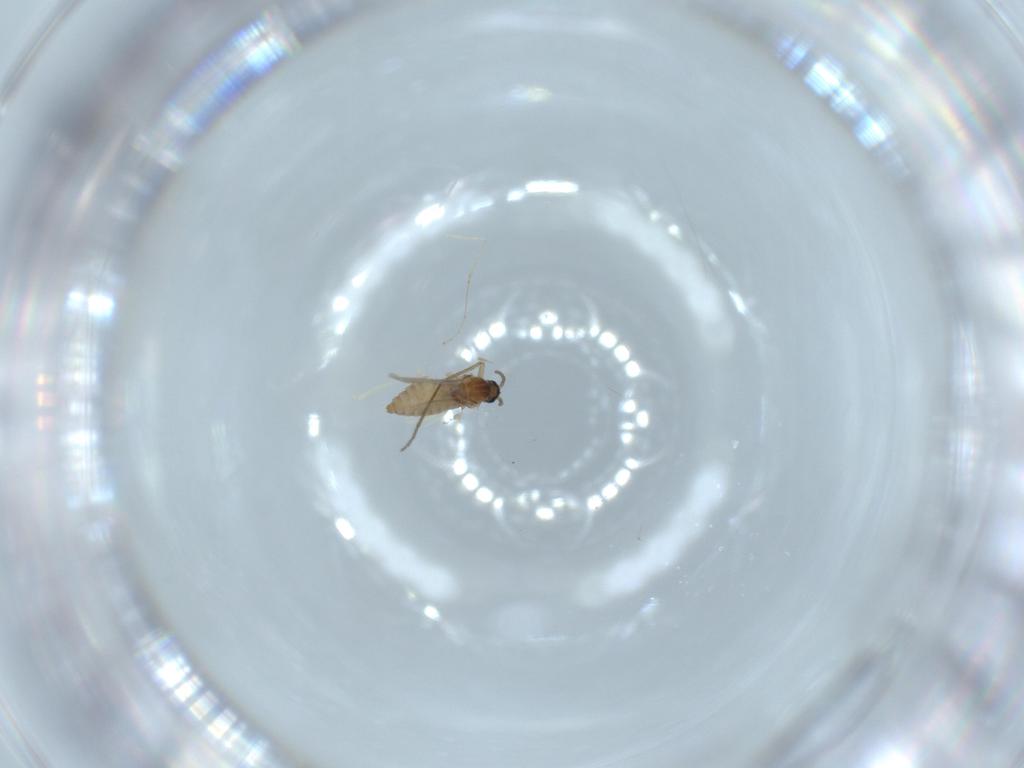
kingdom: Animalia
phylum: Arthropoda
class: Insecta
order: Diptera
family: Cecidomyiidae
